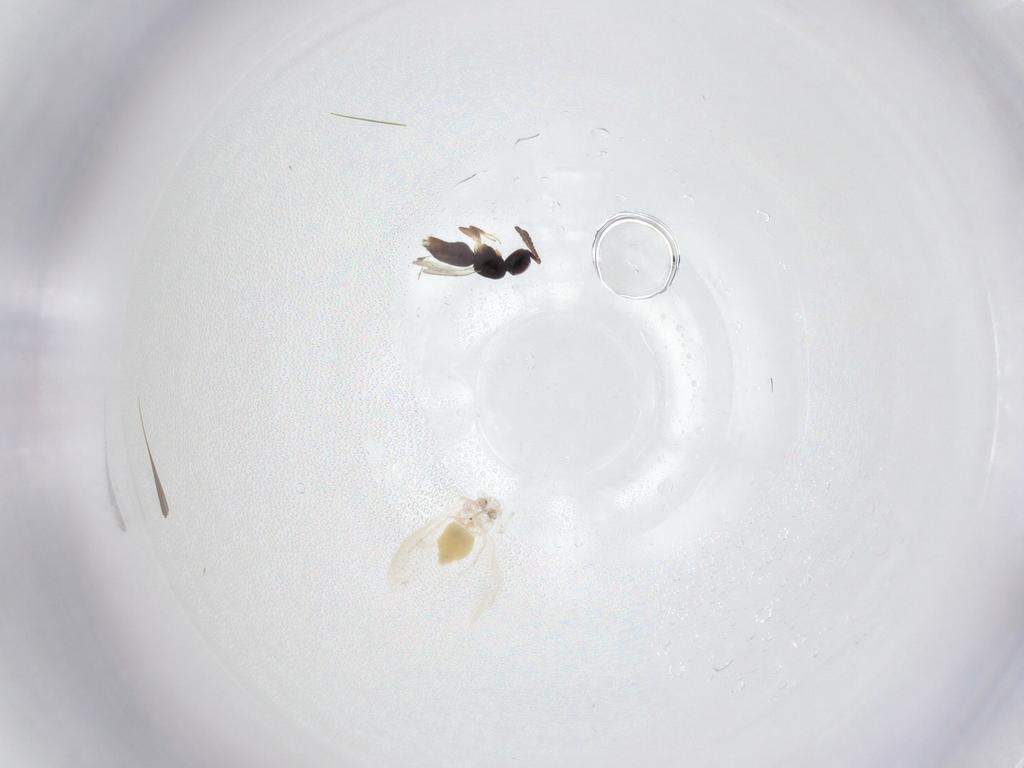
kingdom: Animalia
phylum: Arthropoda
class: Insecta
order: Hemiptera
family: Aleyrodidae
